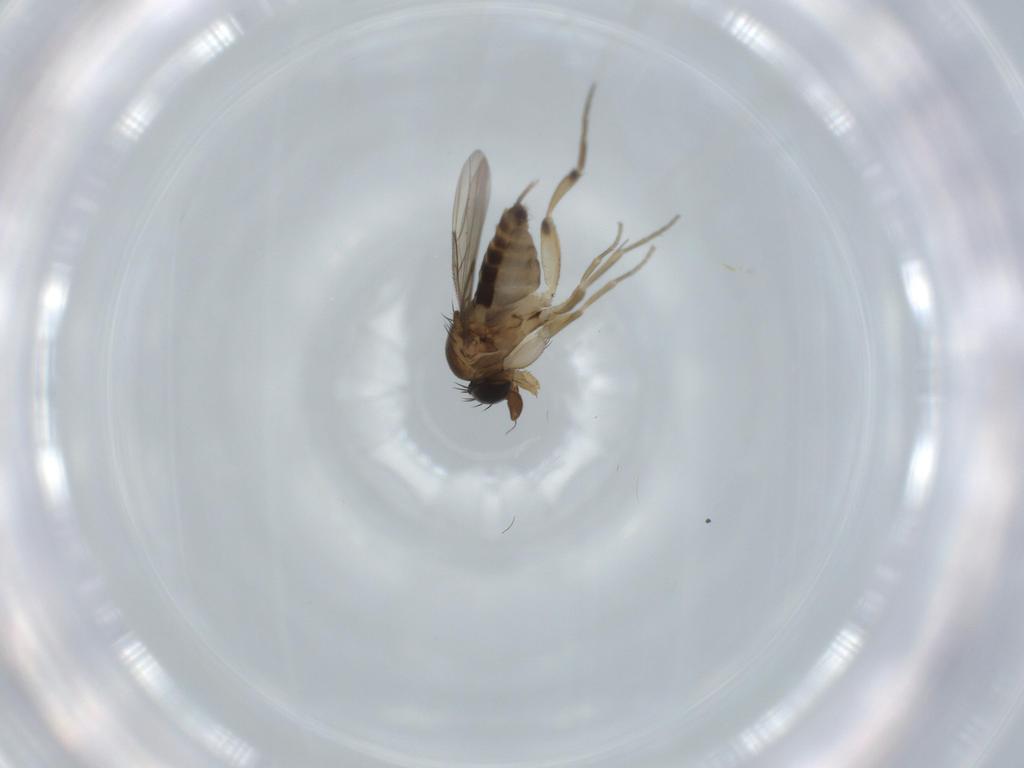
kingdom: Animalia
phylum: Arthropoda
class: Insecta
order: Diptera
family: Phoridae
